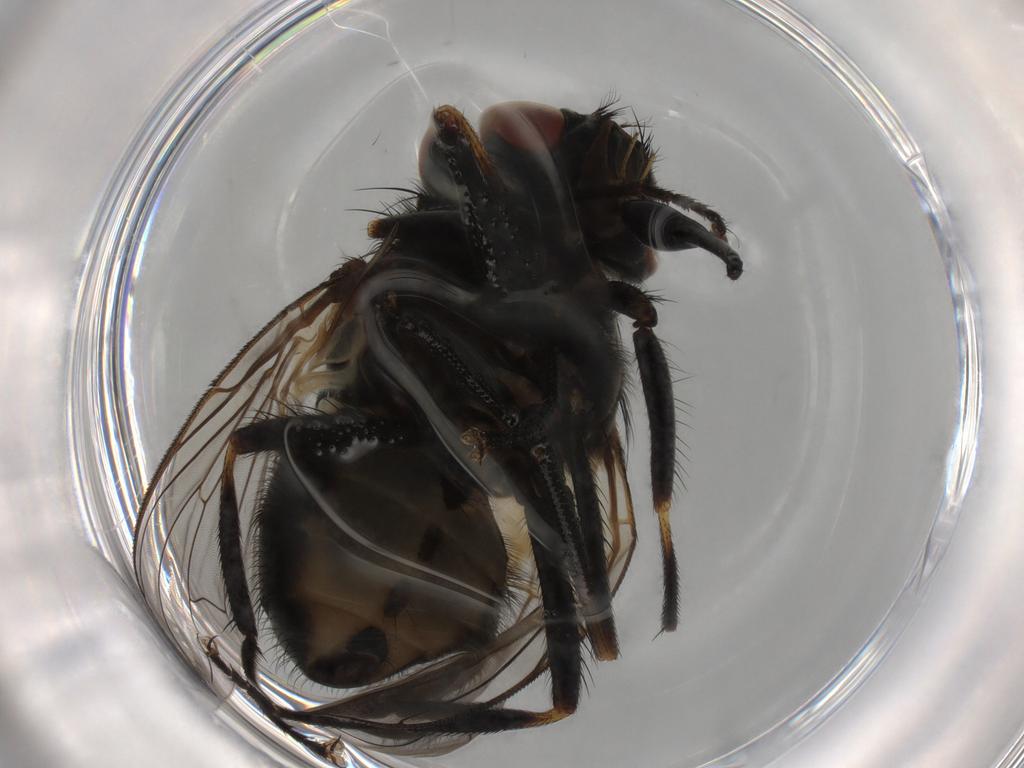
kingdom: Animalia
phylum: Arthropoda
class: Insecta
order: Diptera
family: Muscidae
